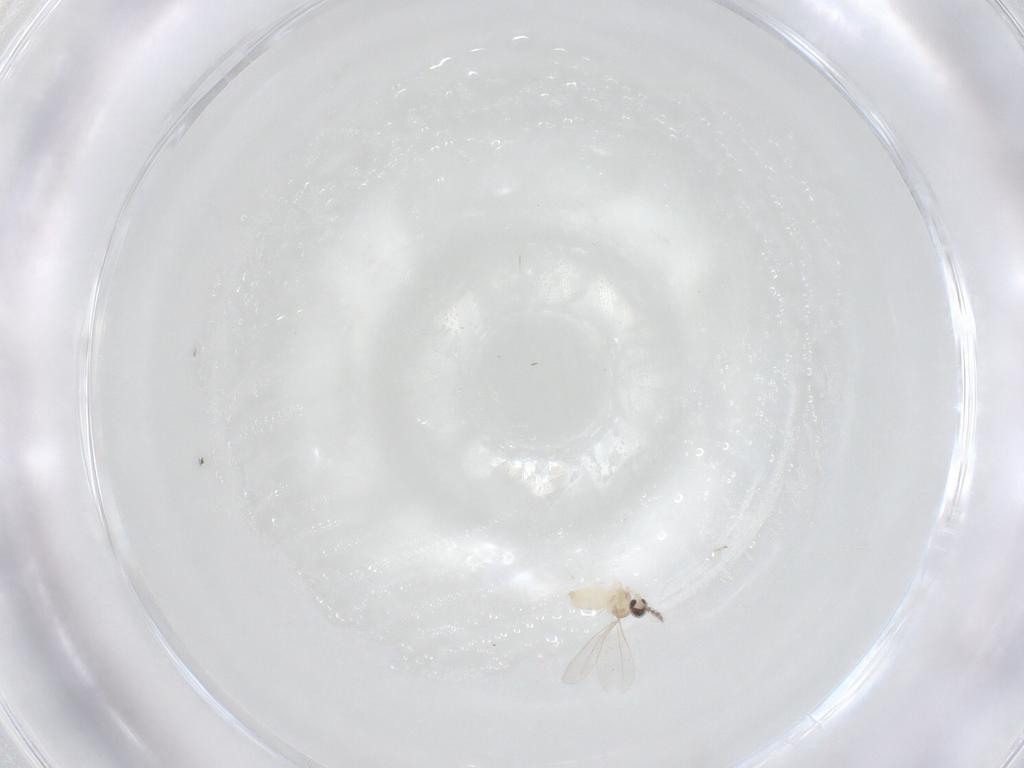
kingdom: Animalia
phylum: Arthropoda
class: Insecta
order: Diptera
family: Cecidomyiidae
